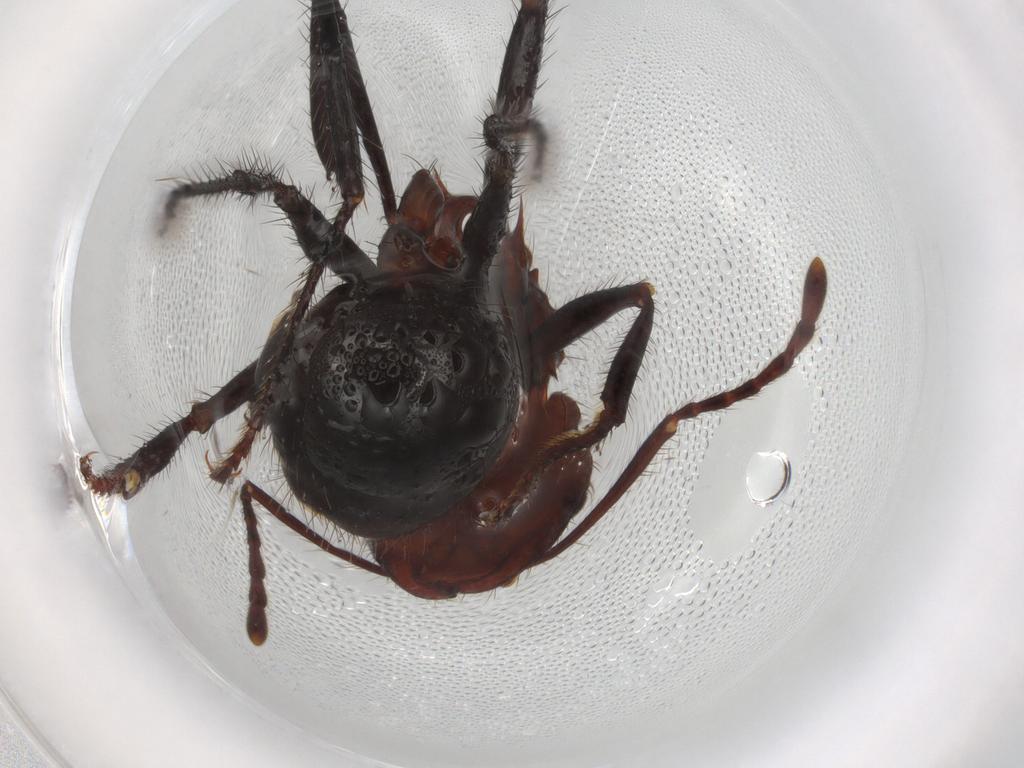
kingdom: Animalia
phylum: Arthropoda
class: Insecta
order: Hymenoptera
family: Formicidae
